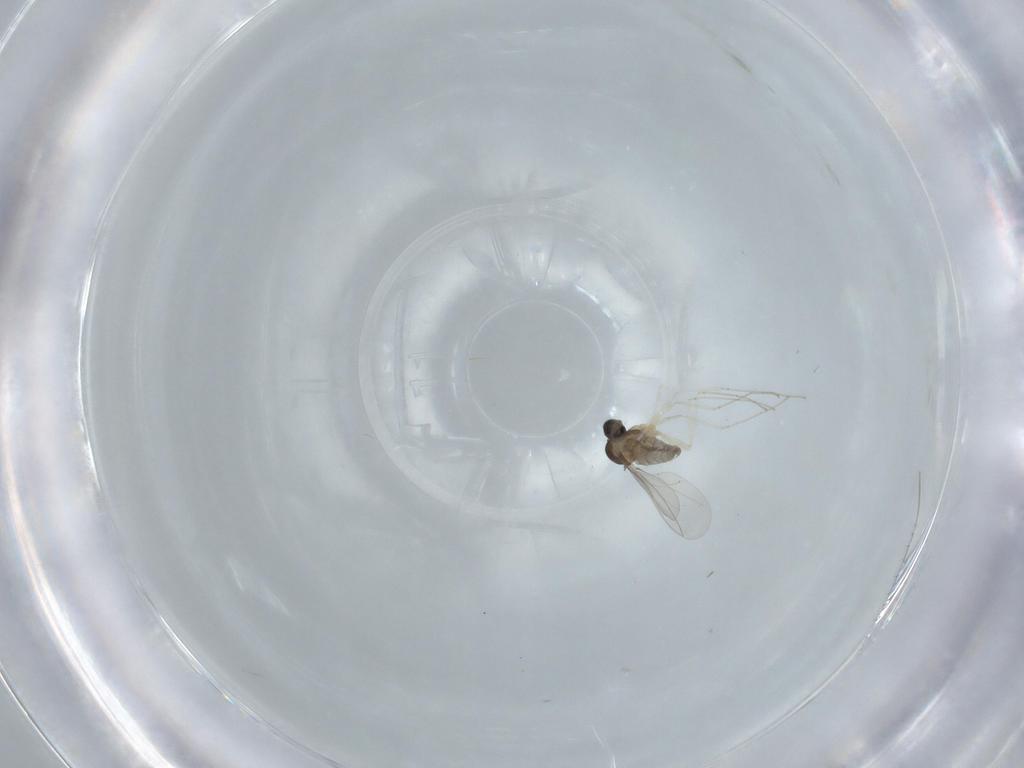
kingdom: Animalia
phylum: Arthropoda
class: Insecta
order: Diptera
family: Cecidomyiidae
